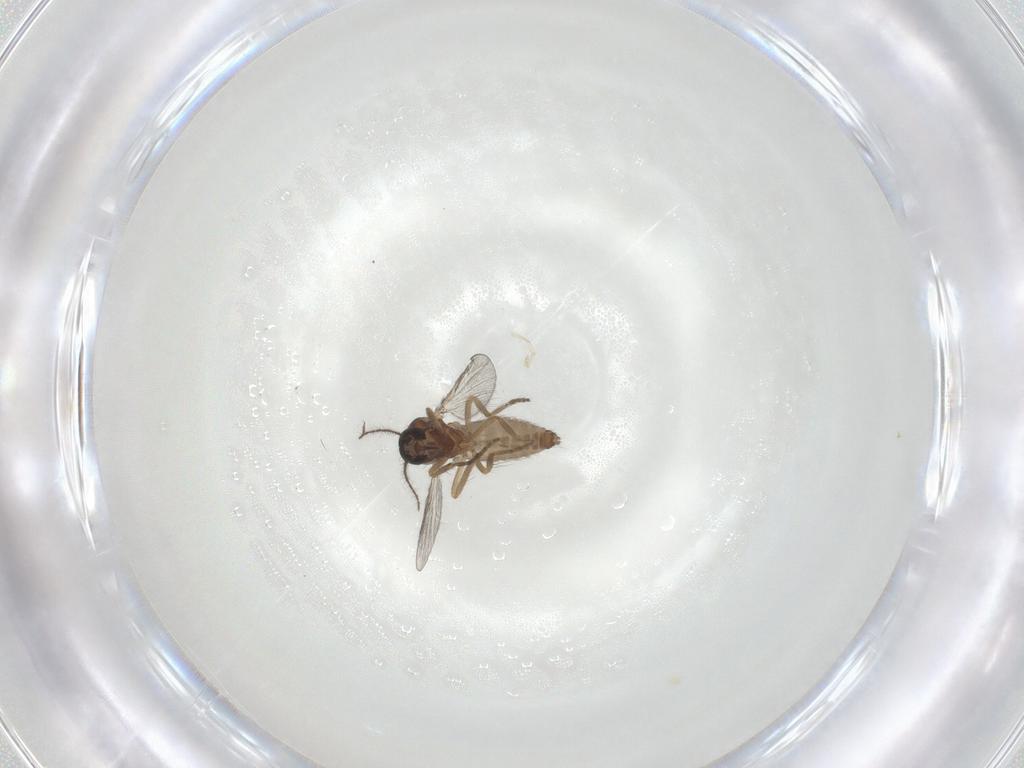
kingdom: Animalia
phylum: Arthropoda
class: Insecta
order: Diptera
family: Ceratopogonidae
